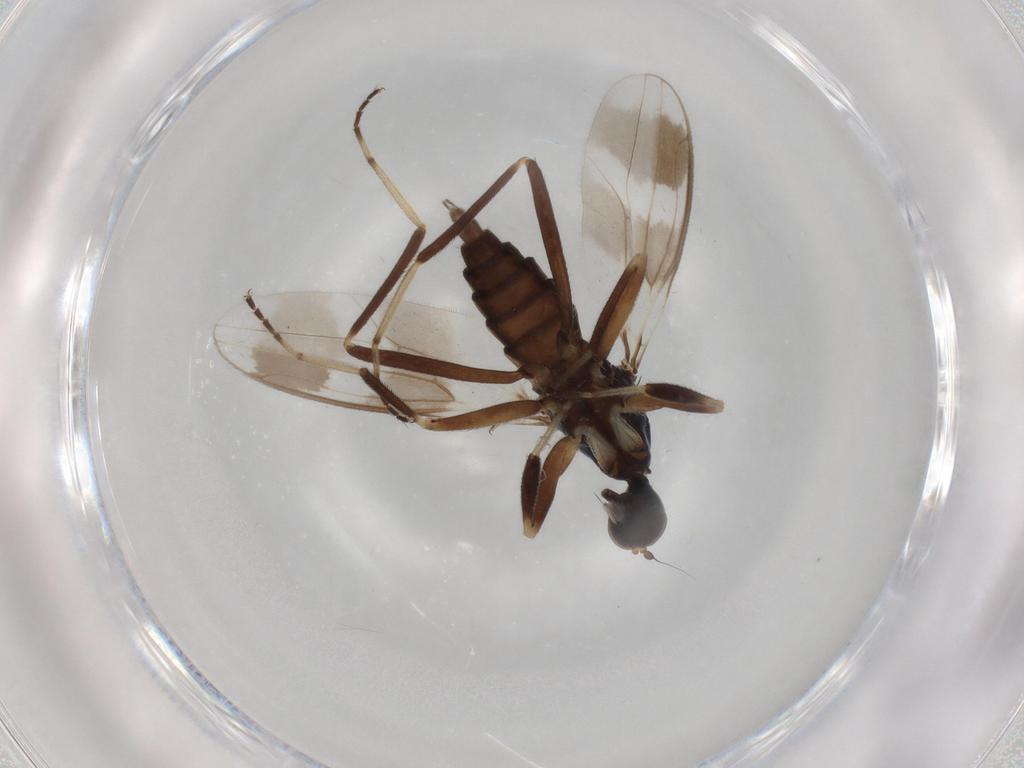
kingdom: Animalia
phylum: Arthropoda
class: Insecta
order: Diptera
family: Hybotidae
